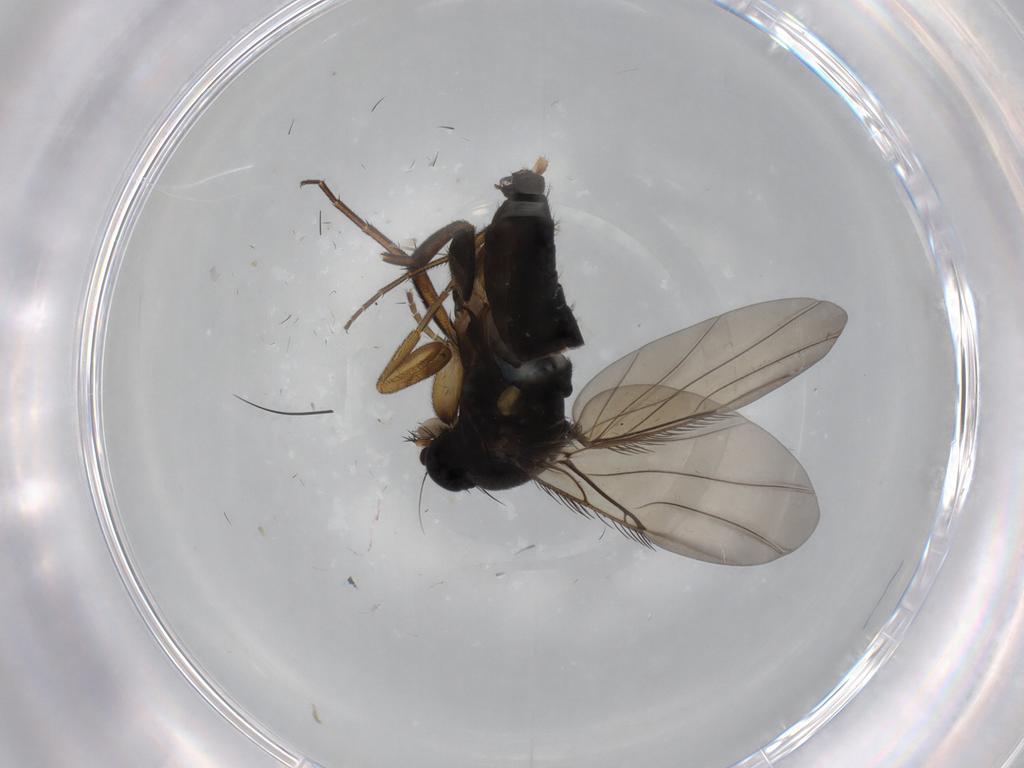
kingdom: Animalia
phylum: Arthropoda
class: Insecta
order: Diptera
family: Phoridae
